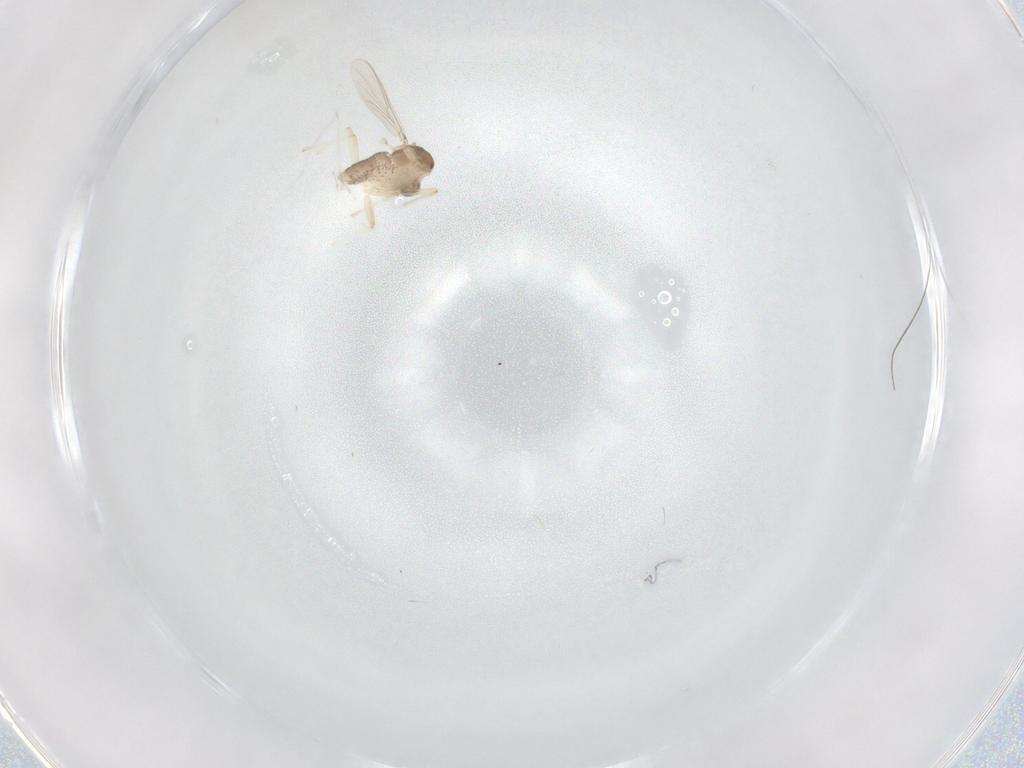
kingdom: Animalia
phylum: Arthropoda
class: Insecta
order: Diptera
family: Chironomidae
